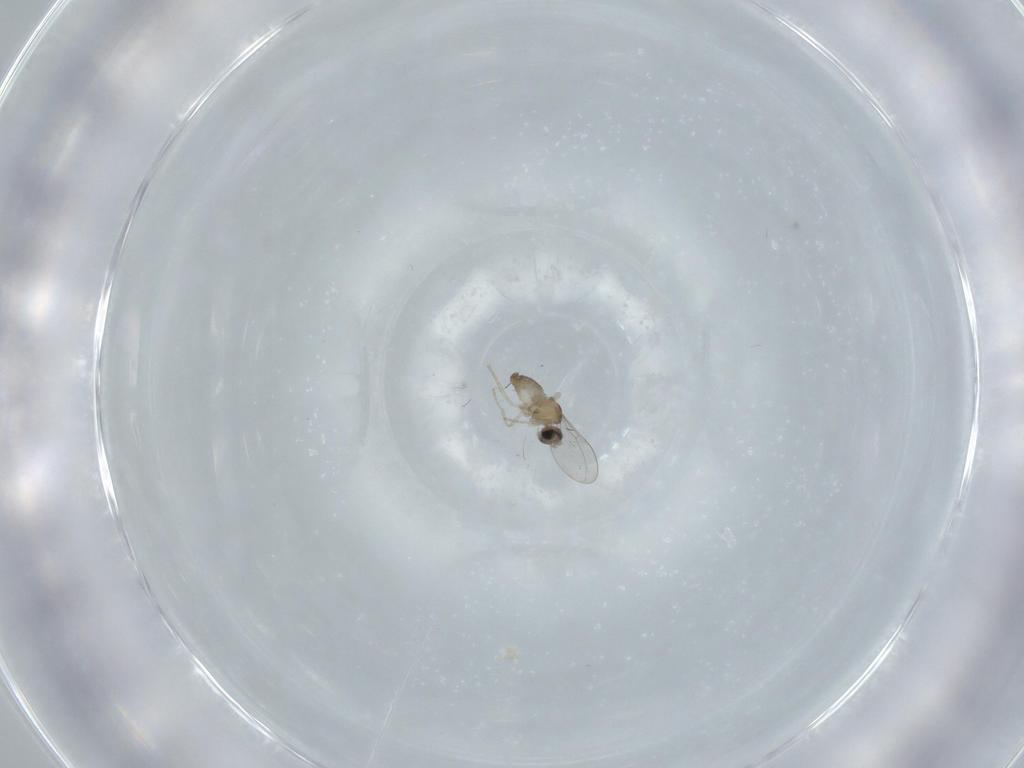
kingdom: Animalia
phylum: Arthropoda
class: Insecta
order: Diptera
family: Cecidomyiidae
